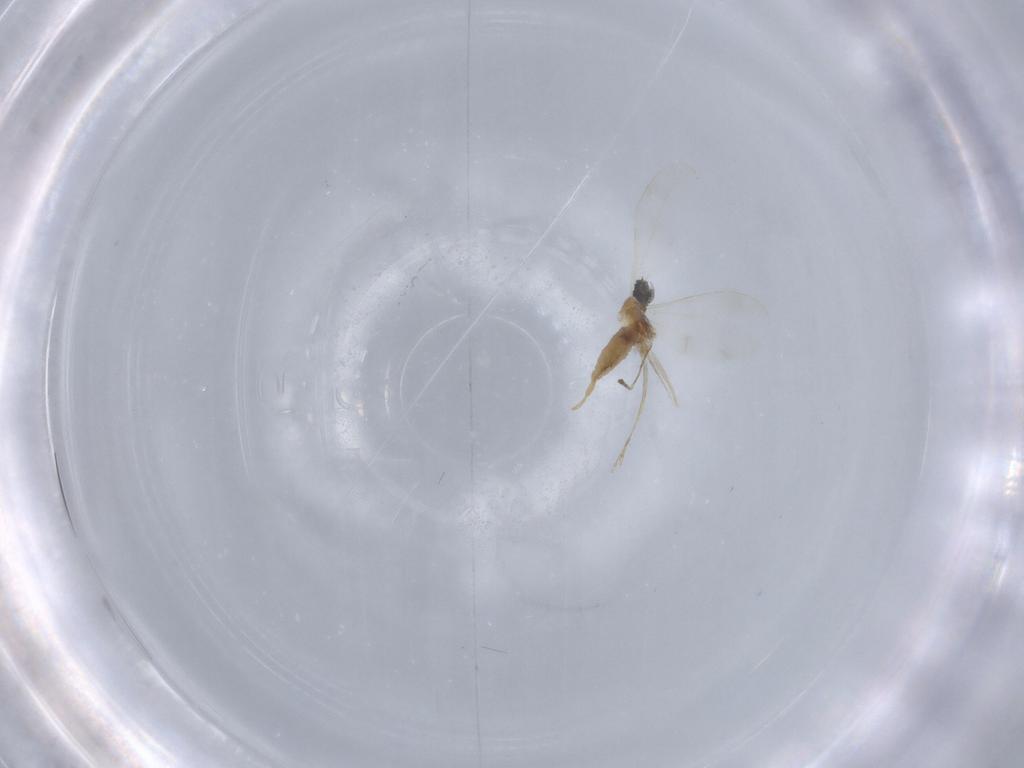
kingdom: Animalia
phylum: Arthropoda
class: Insecta
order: Diptera
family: Cecidomyiidae
